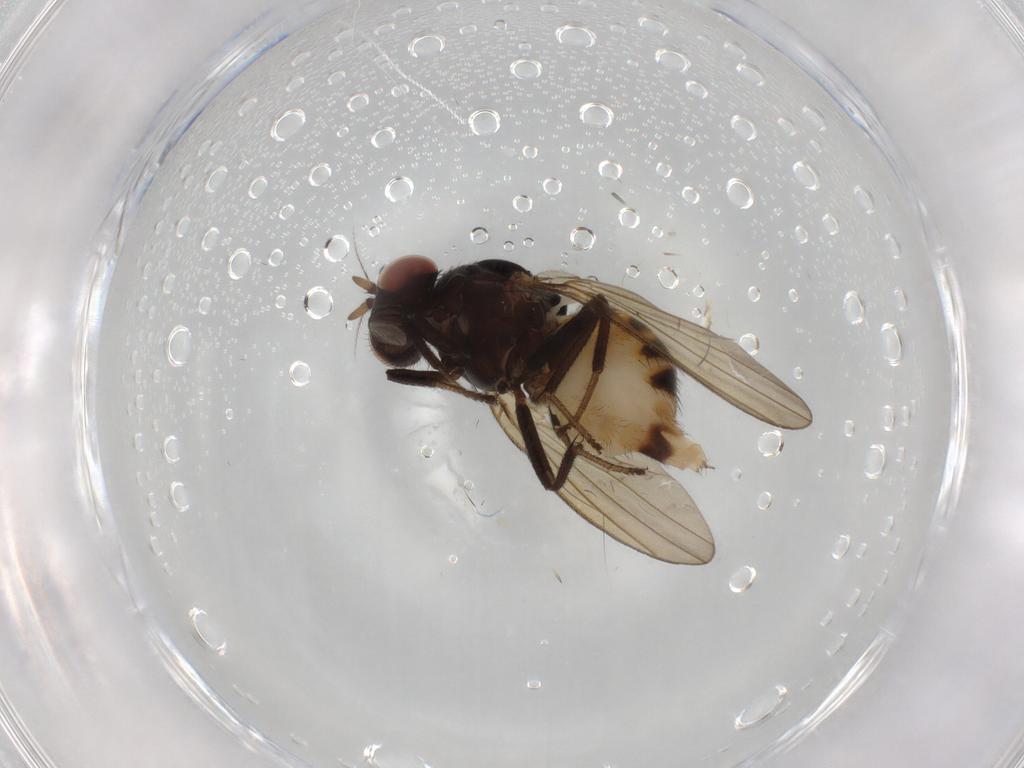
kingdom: Animalia
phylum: Arthropoda
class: Insecta
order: Diptera
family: Lauxaniidae
